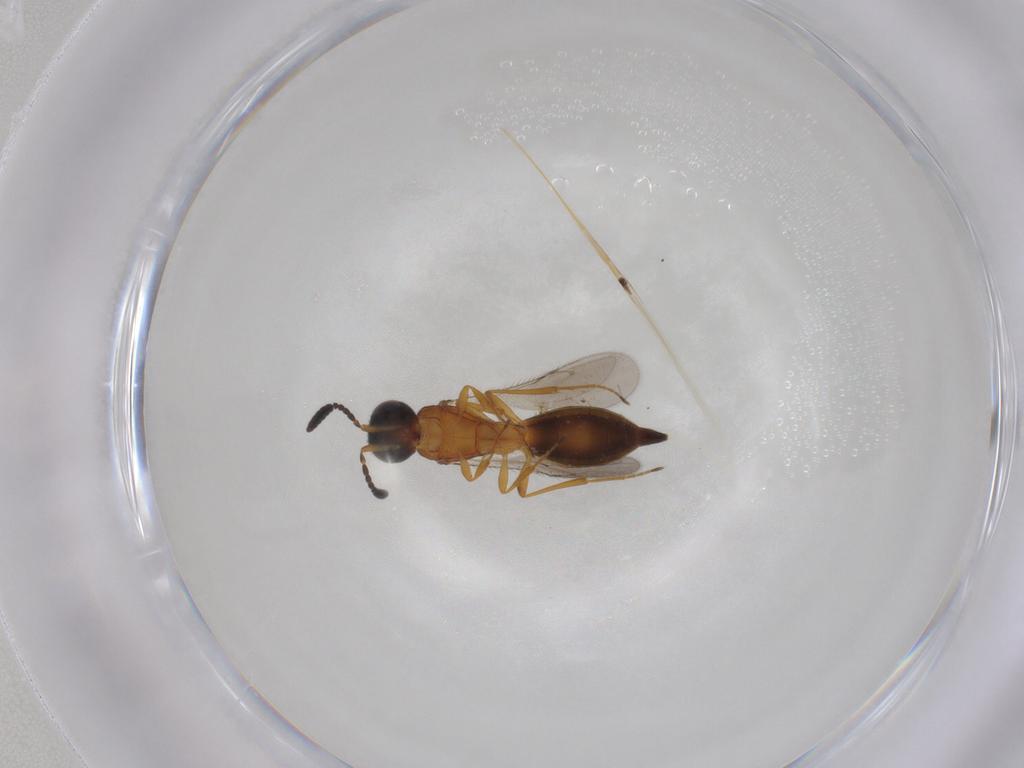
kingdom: Animalia
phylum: Arthropoda
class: Insecta
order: Hymenoptera
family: Scelionidae
